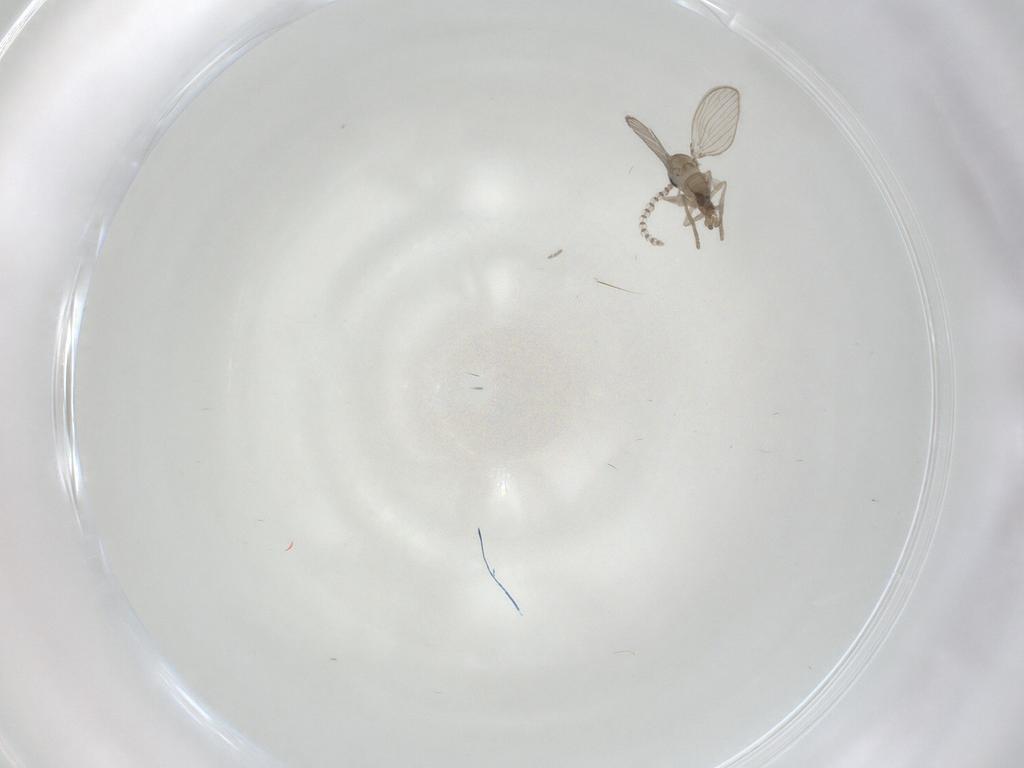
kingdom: Animalia
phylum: Arthropoda
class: Insecta
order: Diptera
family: Psychodidae
